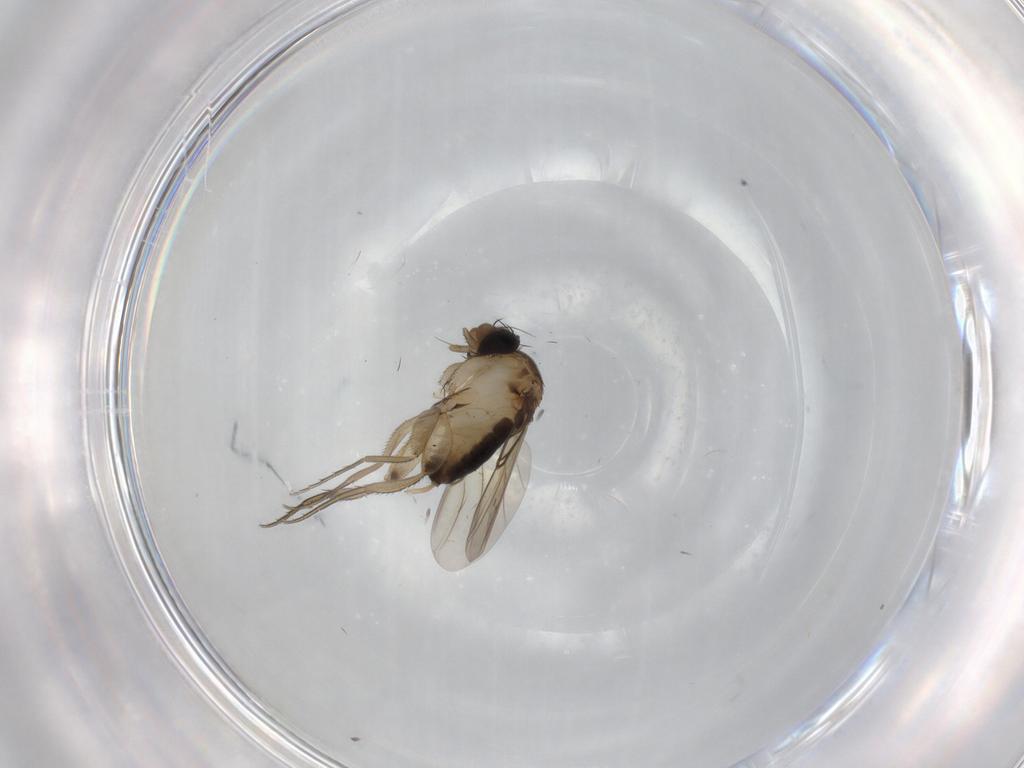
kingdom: Animalia
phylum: Arthropoda
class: Insecta
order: Diptera
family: Phoridae
